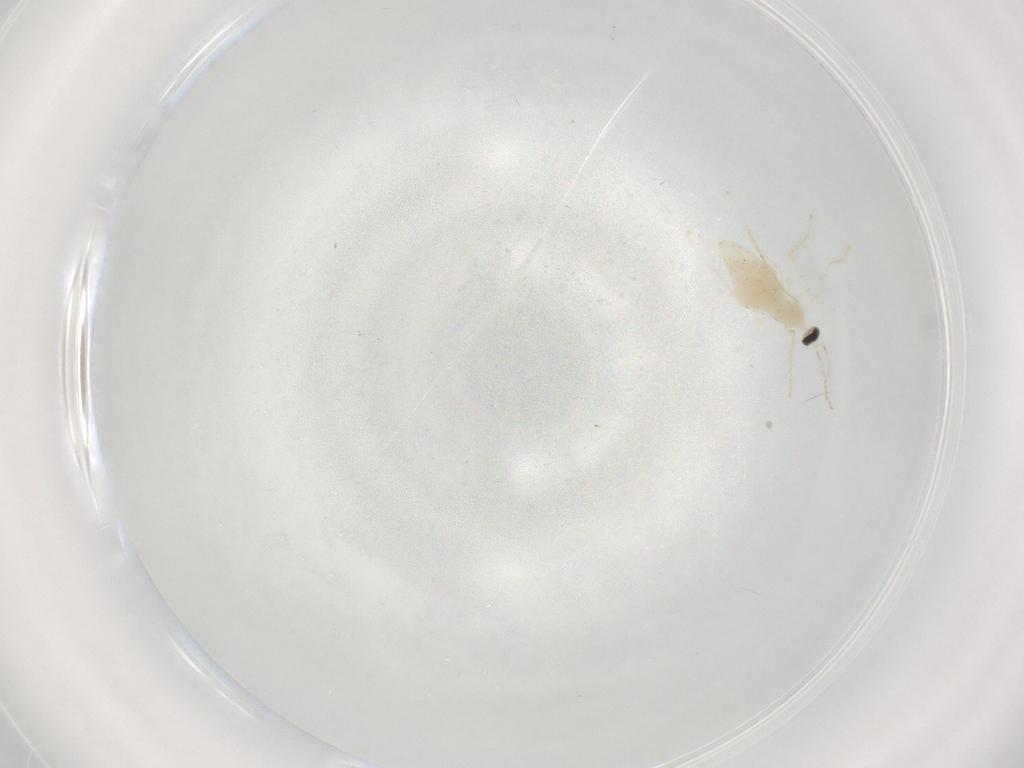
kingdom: Animalia
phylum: Arthropoda
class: Insecta
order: Diptera
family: Cecidomyiidae
